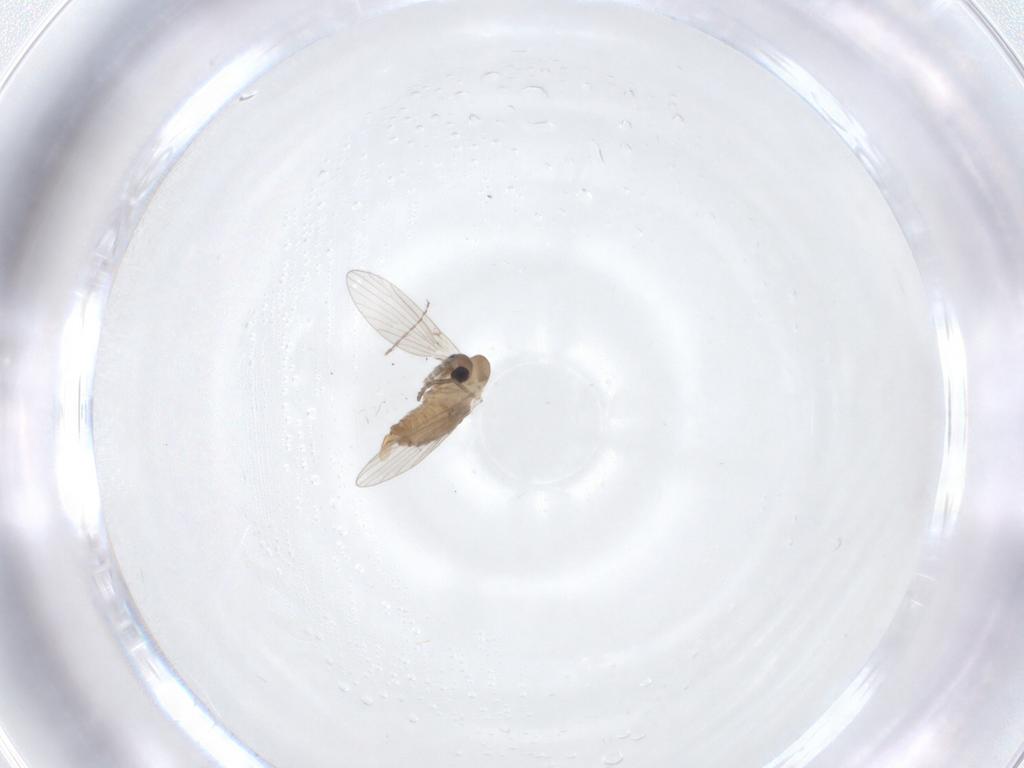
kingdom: Animalia
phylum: Arthropoda
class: Insecta
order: Diptera
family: Cecidomyiidae
